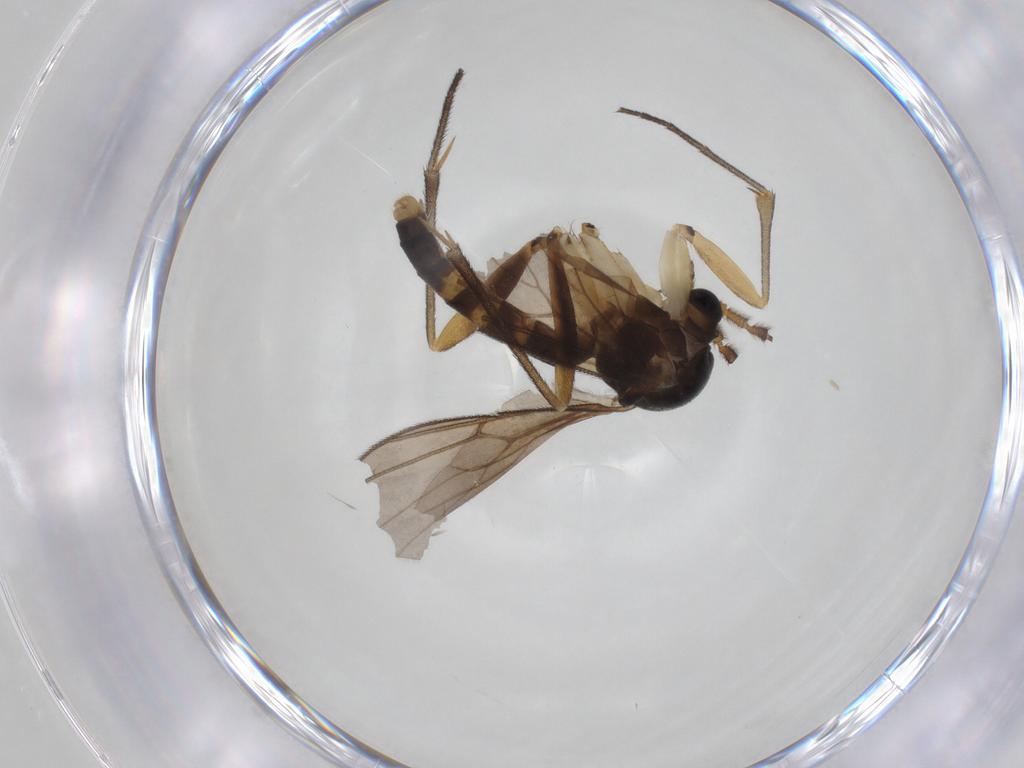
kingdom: Animalia
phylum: Arthropoda
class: Insecta
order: Diptera
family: Mycetophilidae
